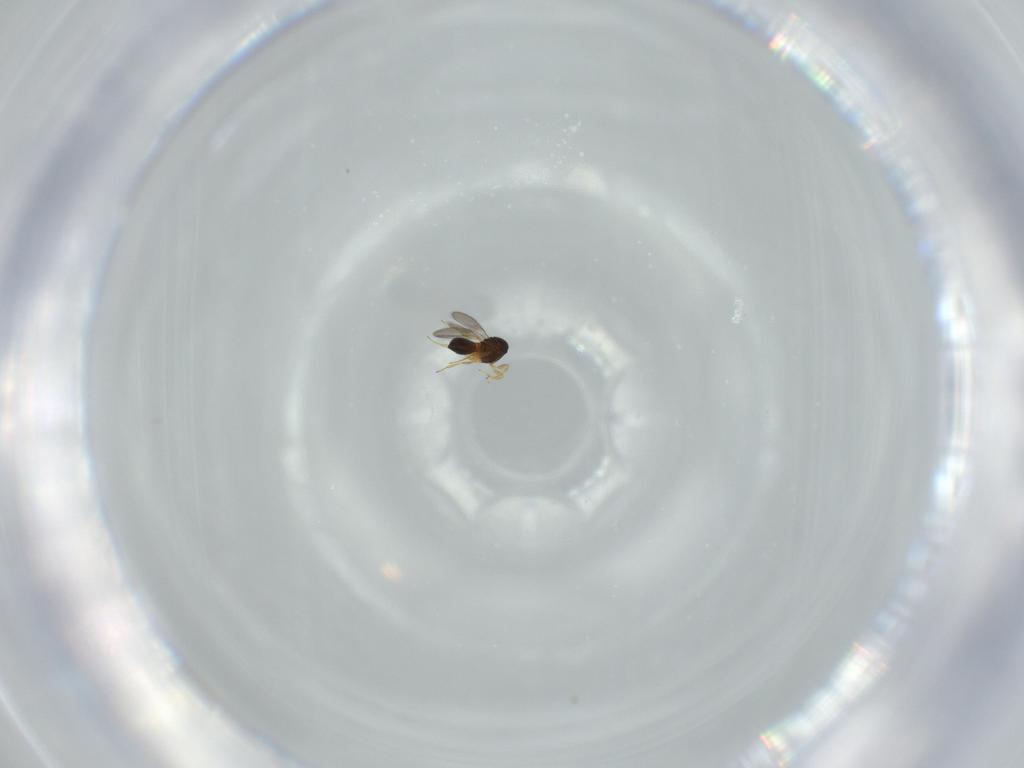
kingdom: Animalia
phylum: Arthropoda
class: Insecta
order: Hymenoptera
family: Mymaridae
